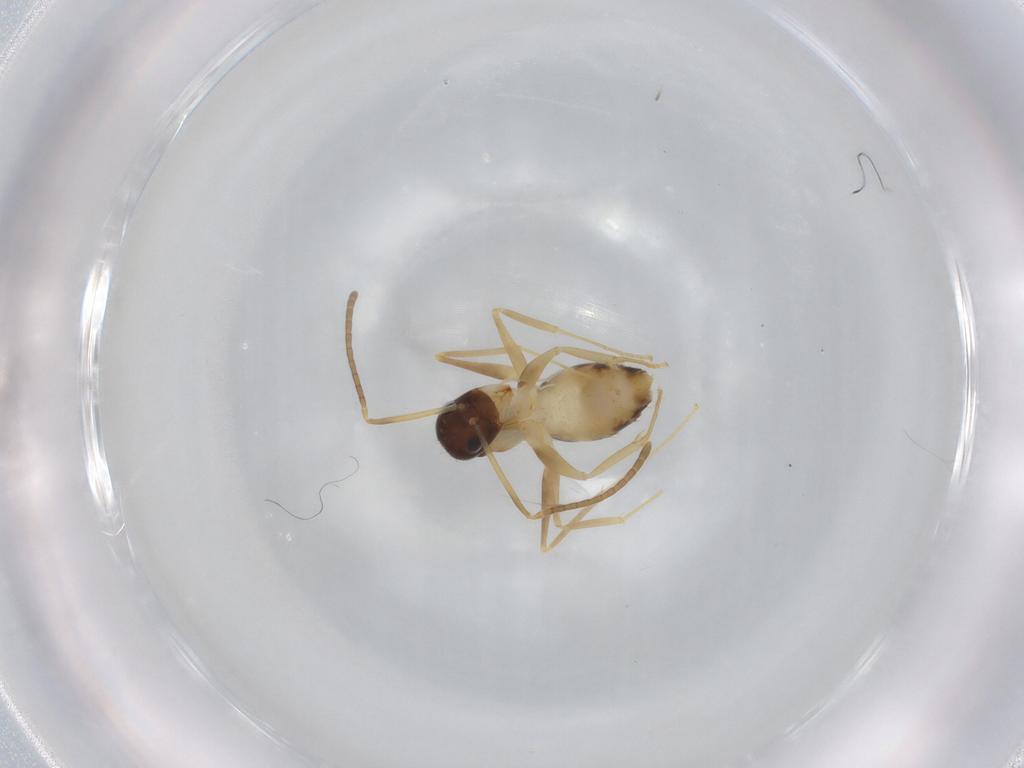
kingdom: Animalia
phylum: Arthropoda
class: Insecta
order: Hymenoptera
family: Formicidae
